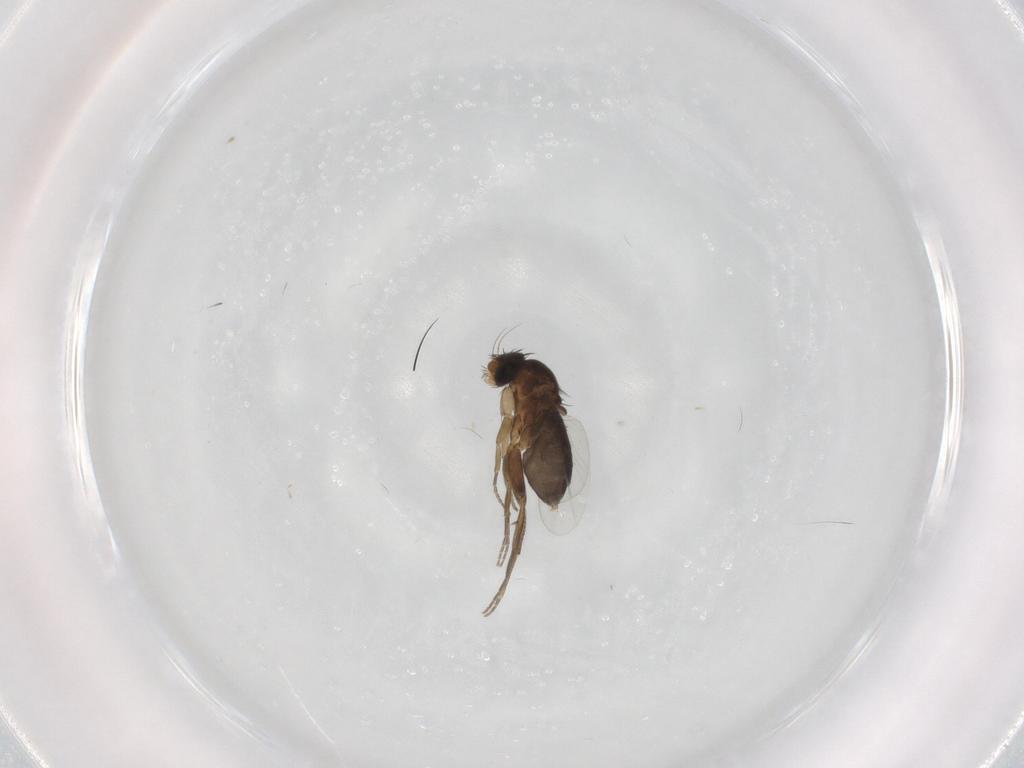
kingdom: Animalia
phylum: Arthropoda
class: Insecta
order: Diptera
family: Phoridae
